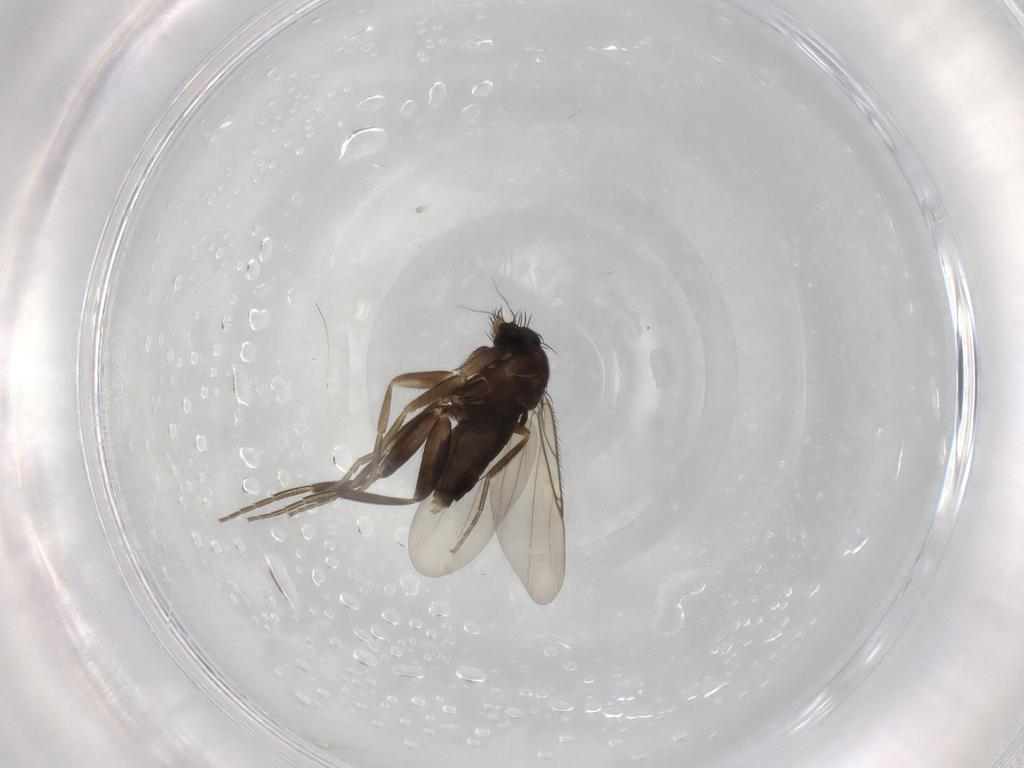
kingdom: Animalia
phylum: Arthropoda
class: Insecta
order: Diptera
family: Phoridae
